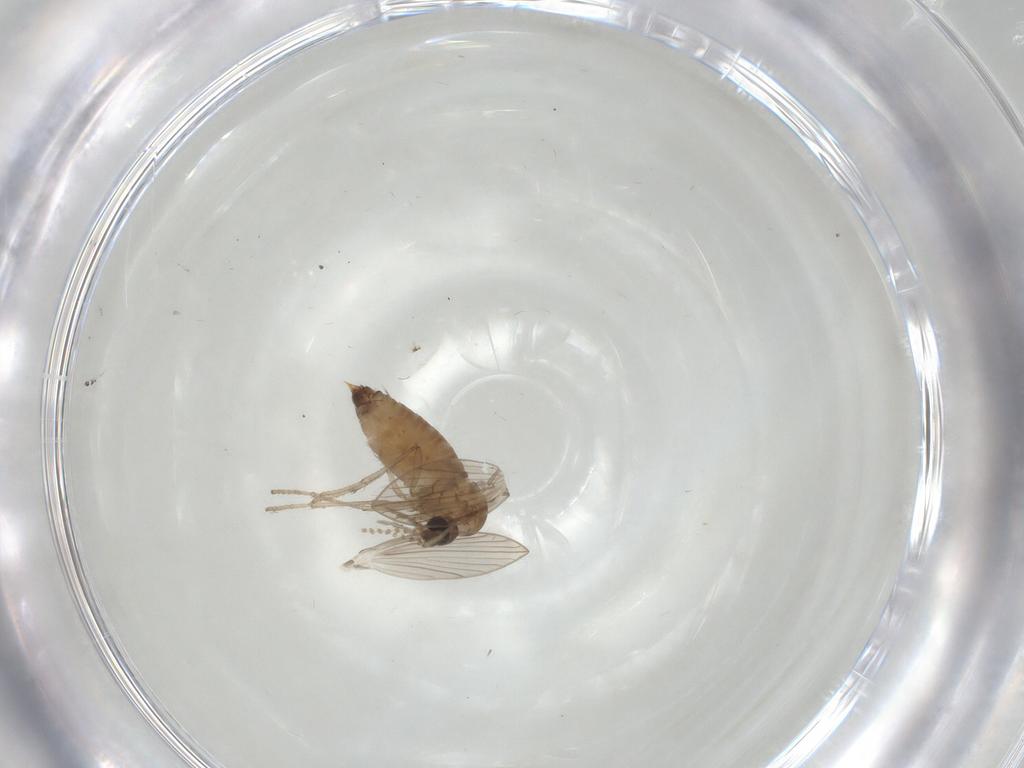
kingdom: Animalia
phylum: Arthropoda
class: Insecta
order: Diptera
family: Psychodidae
